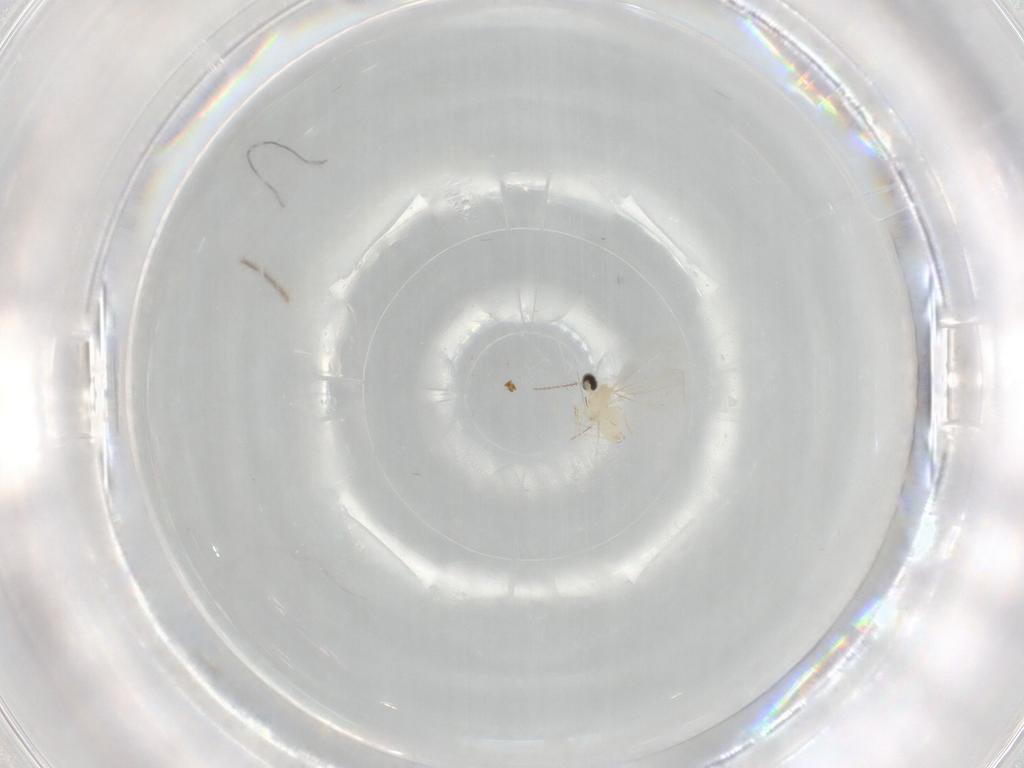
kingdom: Animalia
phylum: Arthropoda
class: Insecta
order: Diptera
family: Cecidomyiidae
